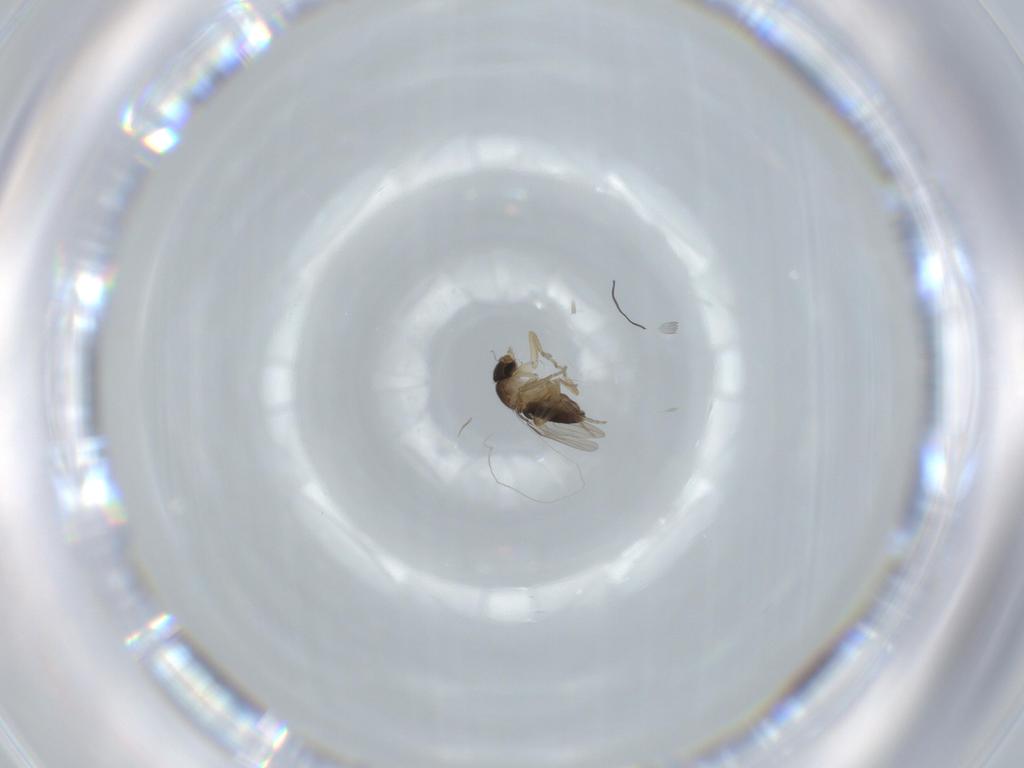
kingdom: Animalia
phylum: Arthropoda
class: Insecta
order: Diptera
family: Phoridae
